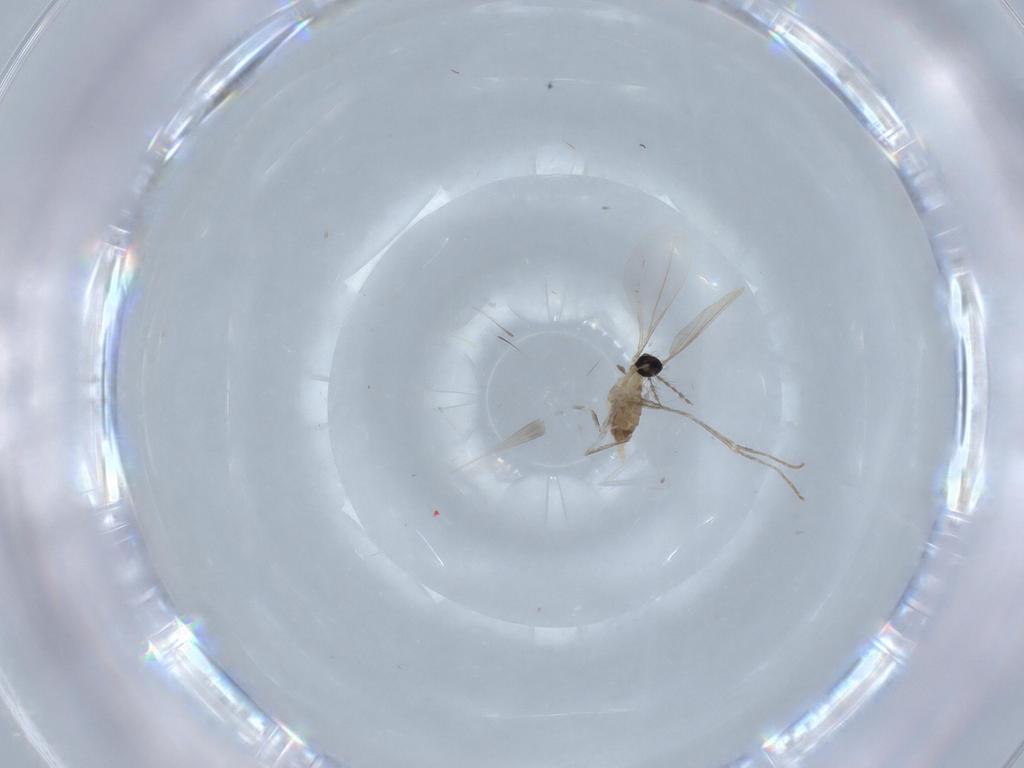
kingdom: Animalia
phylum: Arthropoda
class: Insecta
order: Diptera
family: Cecidomyiidae
